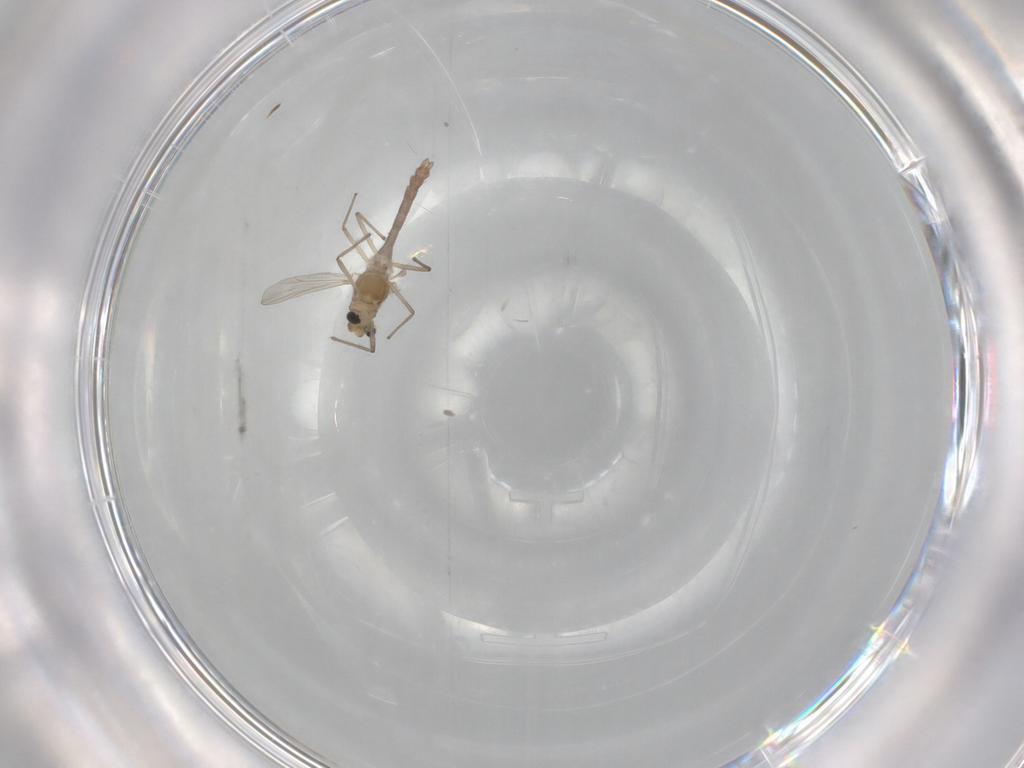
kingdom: Animalia
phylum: Arthropoda
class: Insecta
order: Diptera
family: Chironomidae
